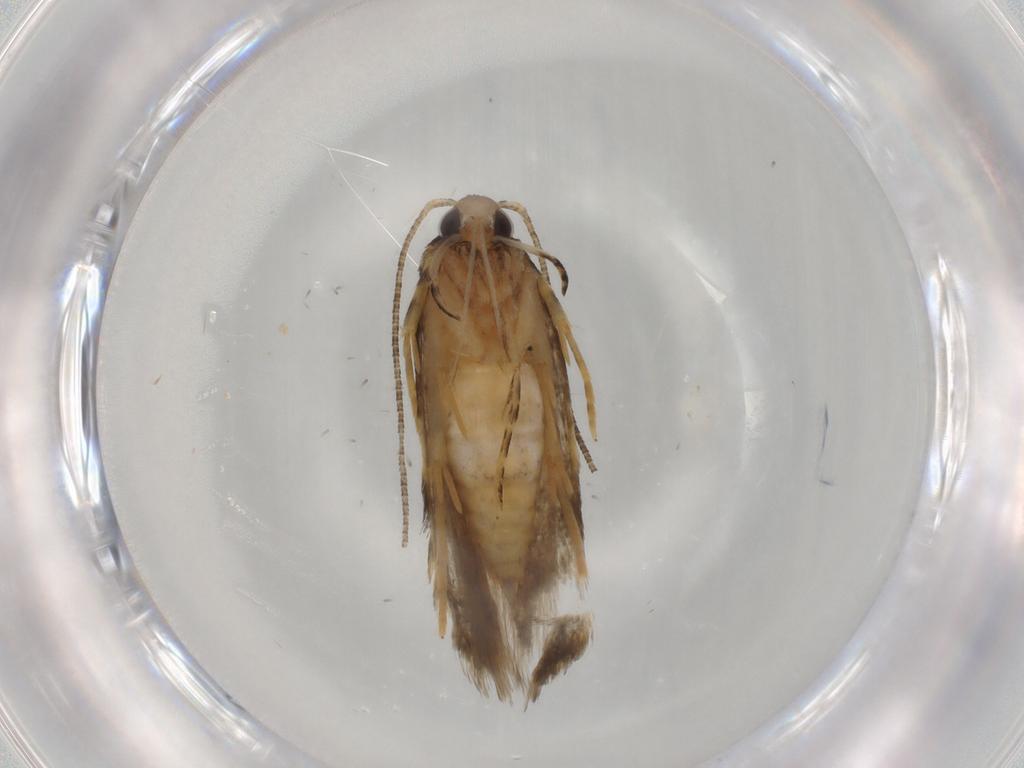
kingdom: Animalia
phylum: Arthropoda
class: Insecta
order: Lepidoptera
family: Autostichidae
